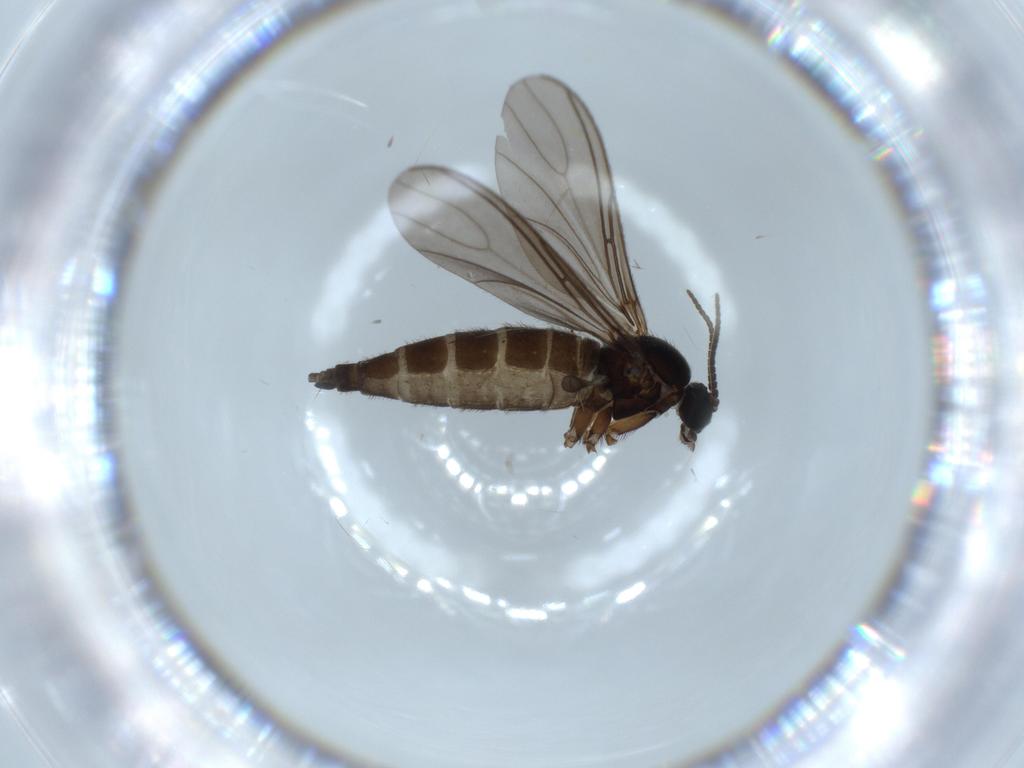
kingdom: Animalia
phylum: Arthropoda
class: Insecta
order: Diptera
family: Sciaridae
